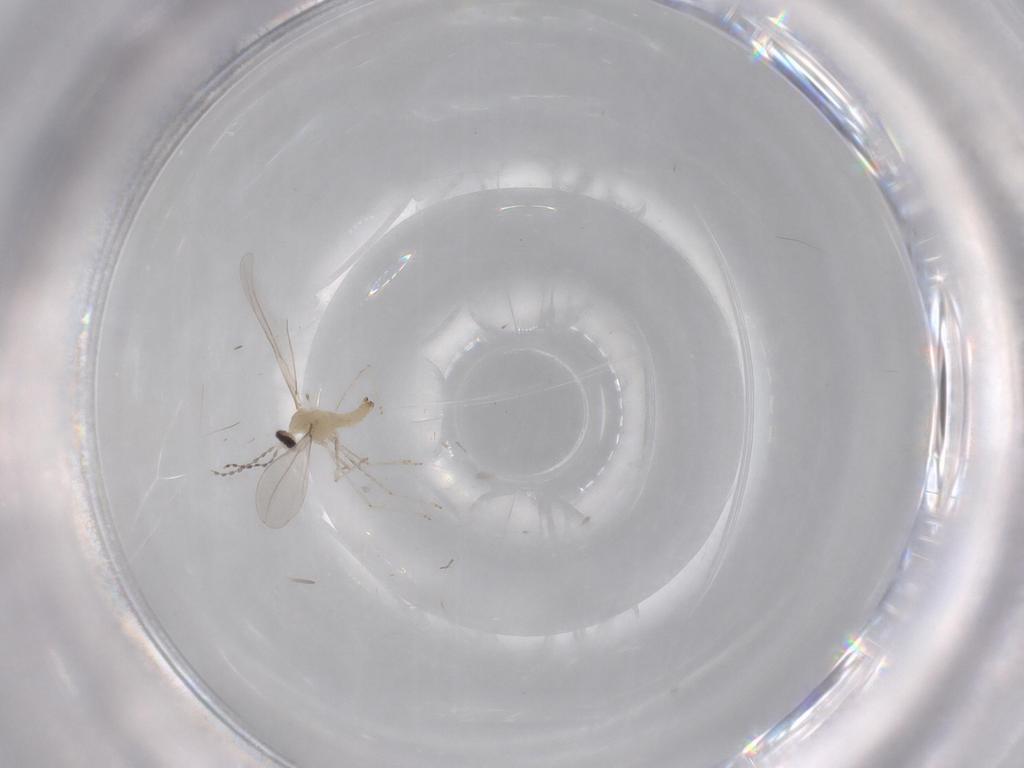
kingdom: Animalia
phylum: Arthropoda
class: Insecta
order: Diptera
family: Cecidomyiidae
